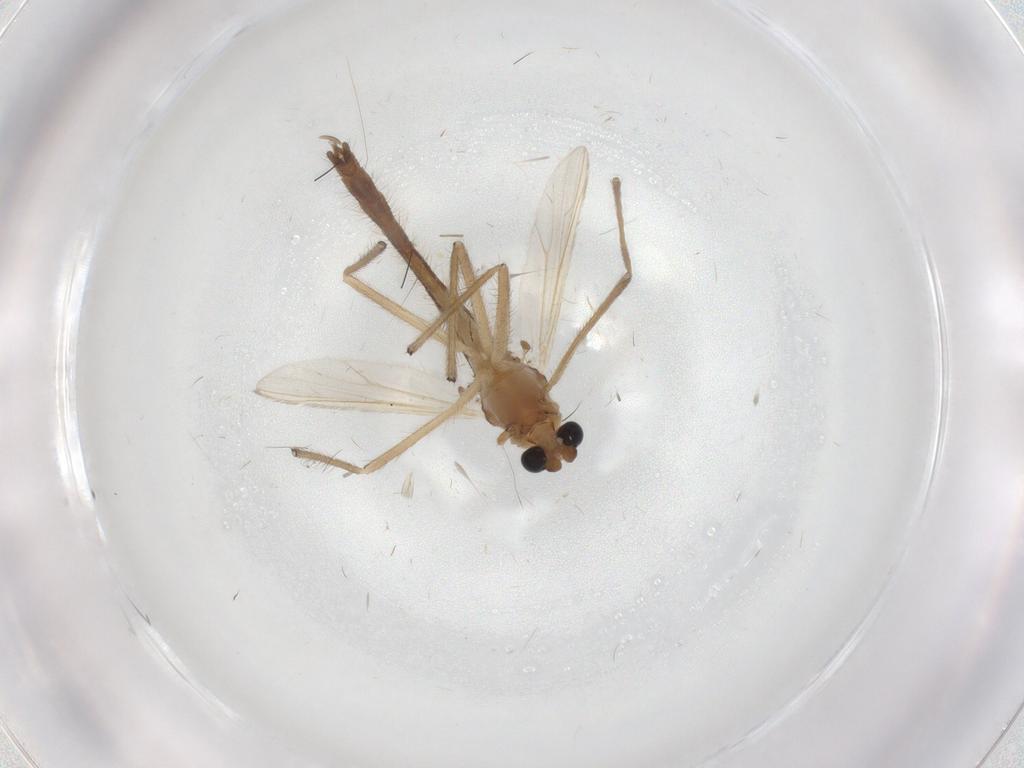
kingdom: Animalia
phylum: Arthropoda
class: Insecta
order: Diptera
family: Chironomidae
